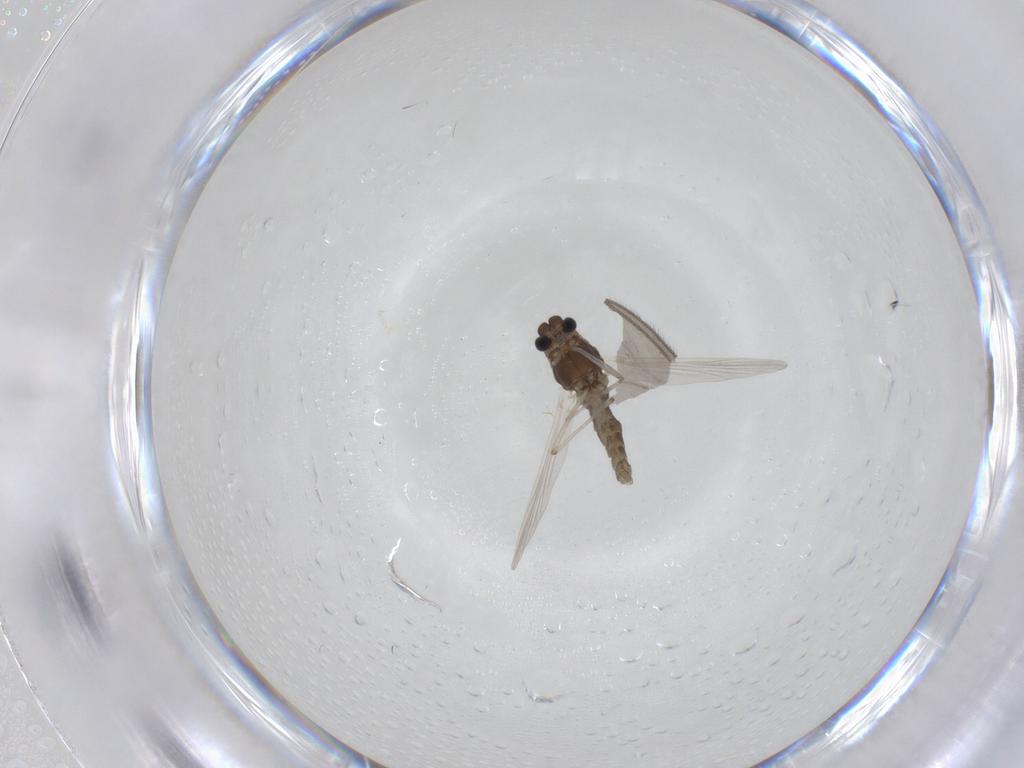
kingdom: Animalia
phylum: Arthropoda
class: Insecta
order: Diptera
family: Chironomidae
